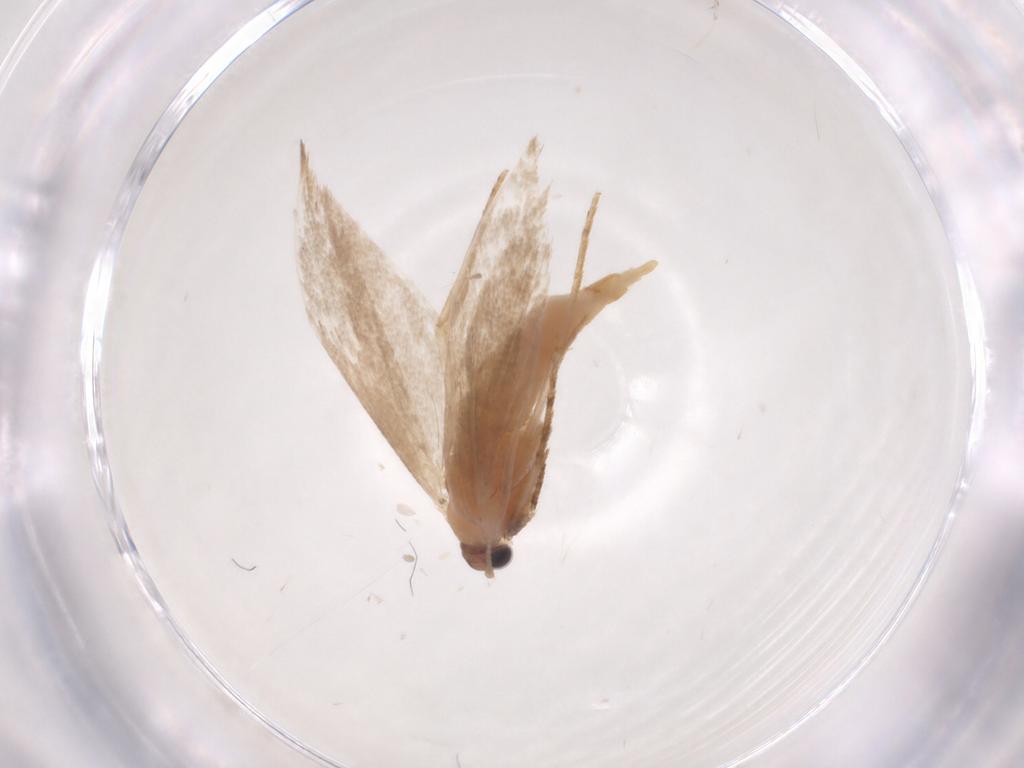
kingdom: Animalia
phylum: Arthropoda
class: Insecta
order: Lepidoptera
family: Nepticulidae
